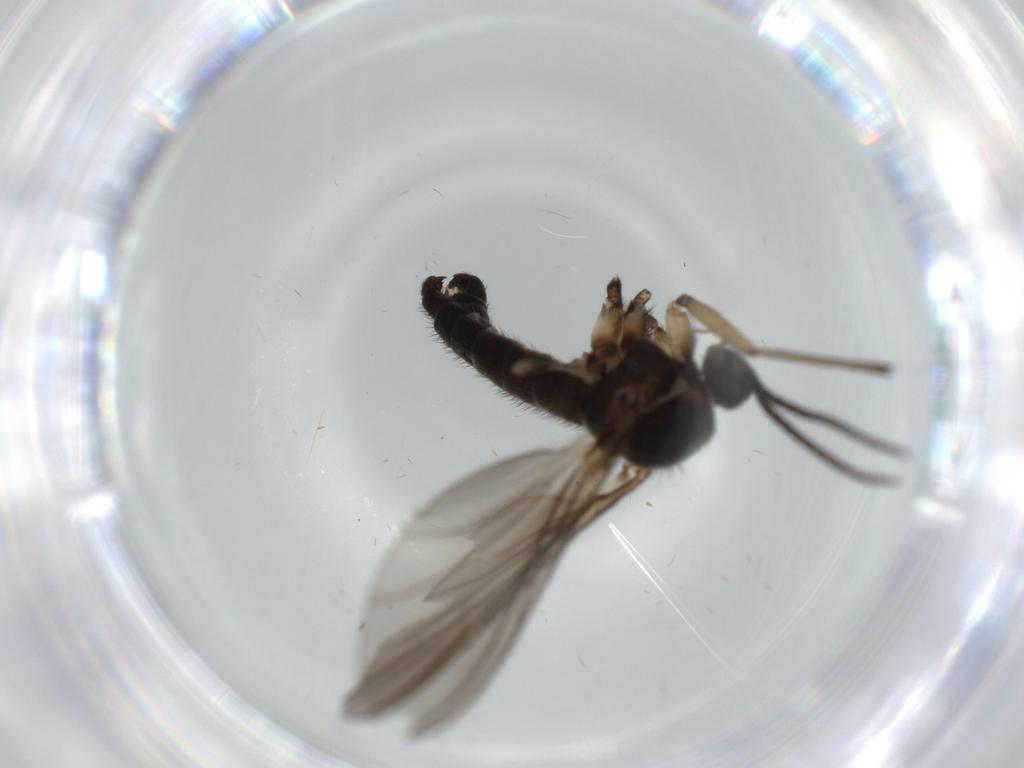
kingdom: Animalia
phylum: Arthropoda
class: Insecta
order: Diptera
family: Sciaridae
